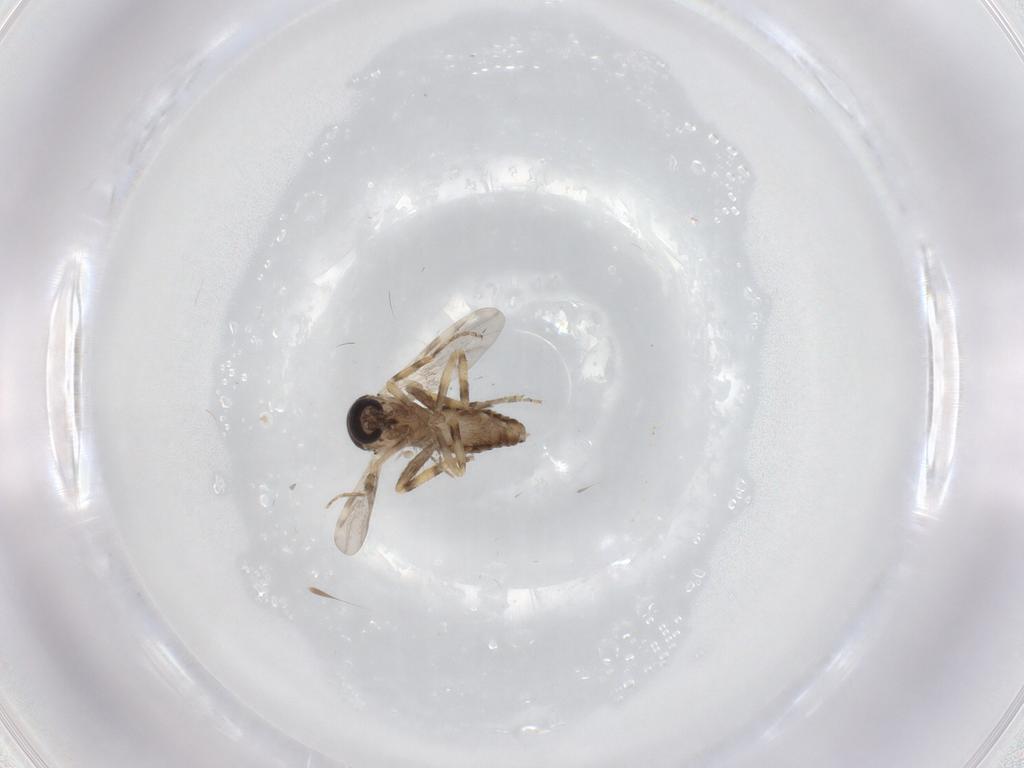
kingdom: Animalia
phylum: Arthropoda
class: Insecta
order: Diptera
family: Ceratopogonidae
